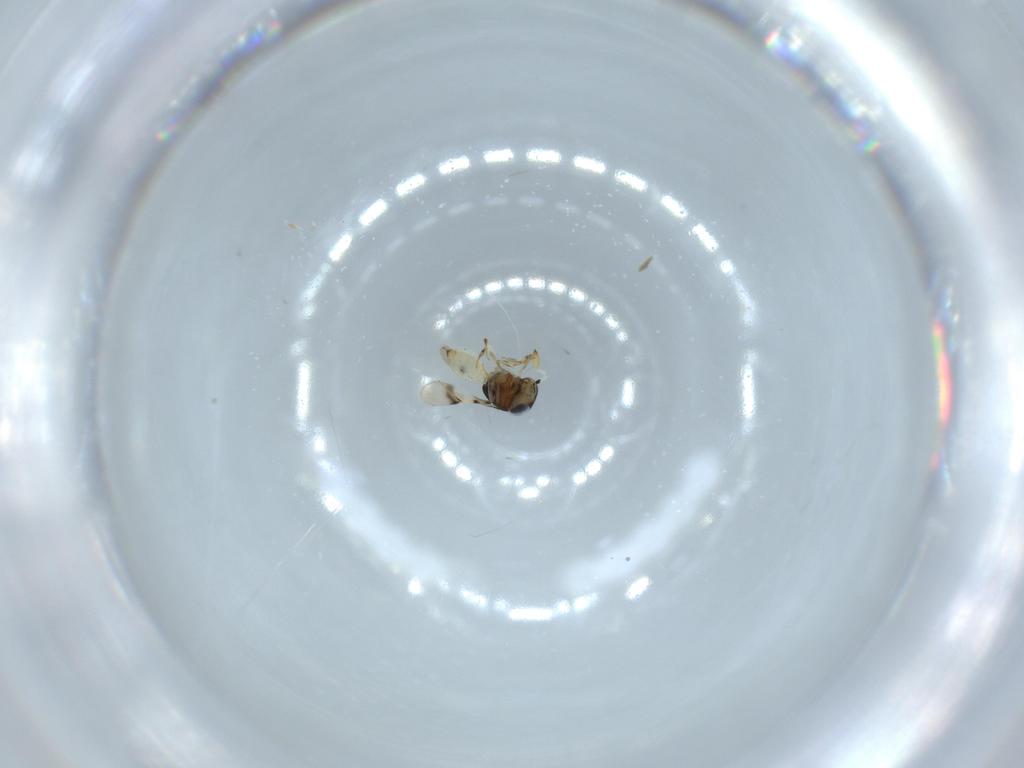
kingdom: Animalia
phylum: Arthropoda
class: Insecta
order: Hymenoptera
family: Scelionidae
